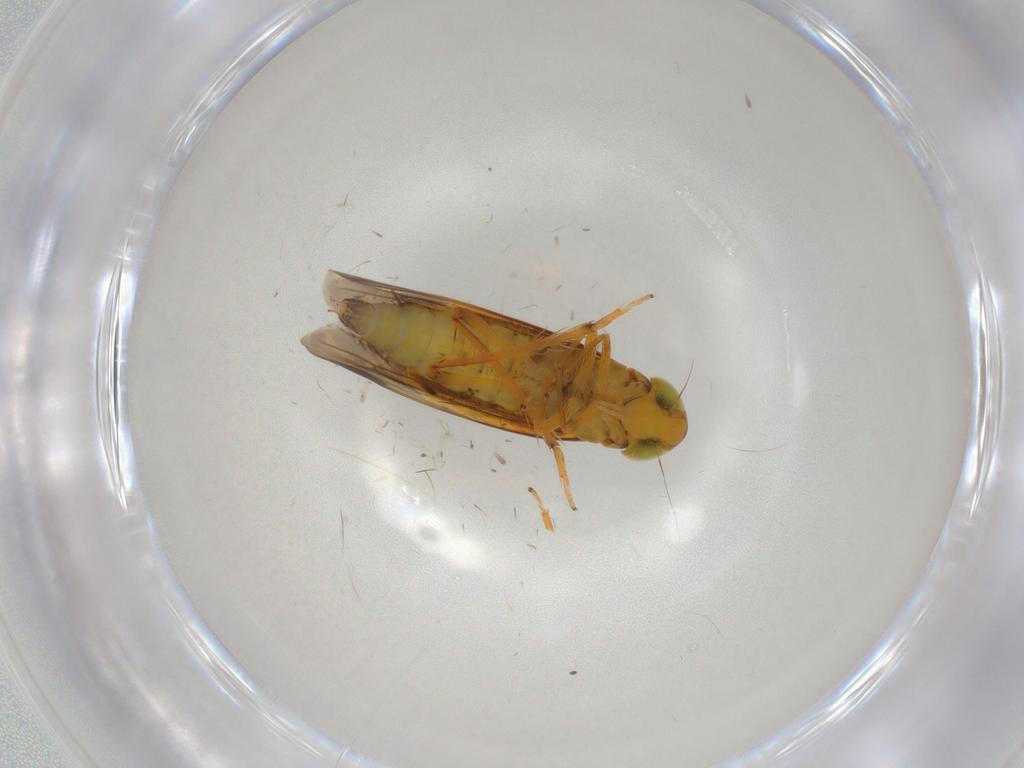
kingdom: Animalia
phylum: Arthropoda
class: Insecta
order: Hemiptera
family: Cicadellidae
